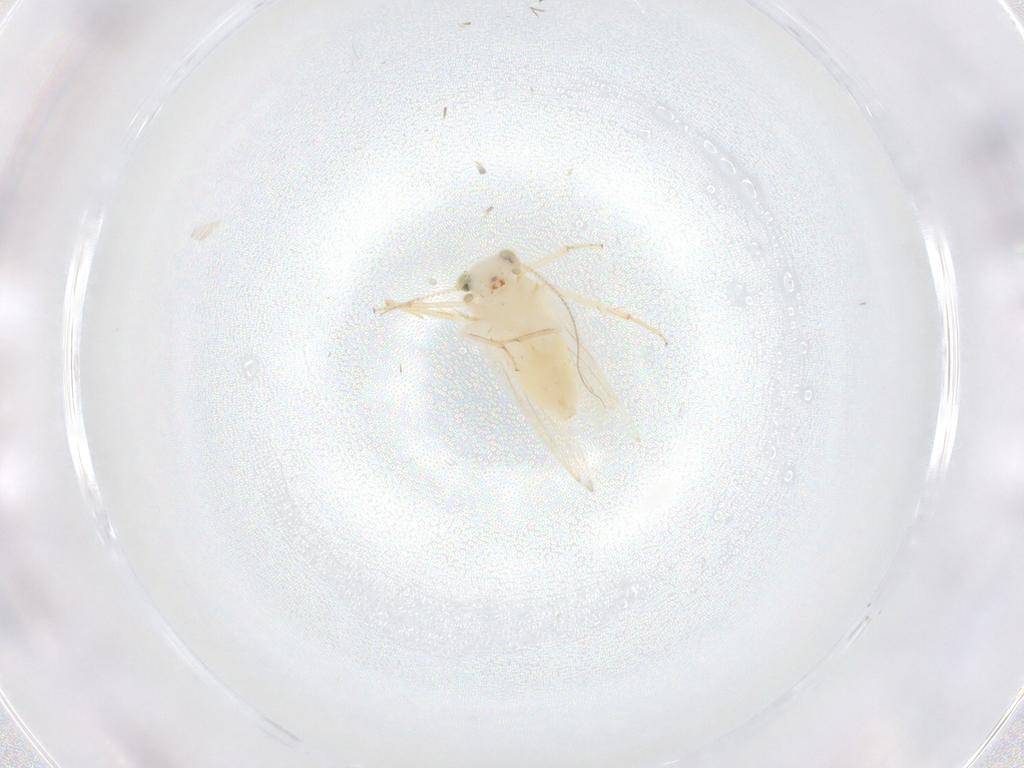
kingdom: Animalia
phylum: Arthropoda
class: Insecta
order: Psocodea
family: Lepidopsocidae
